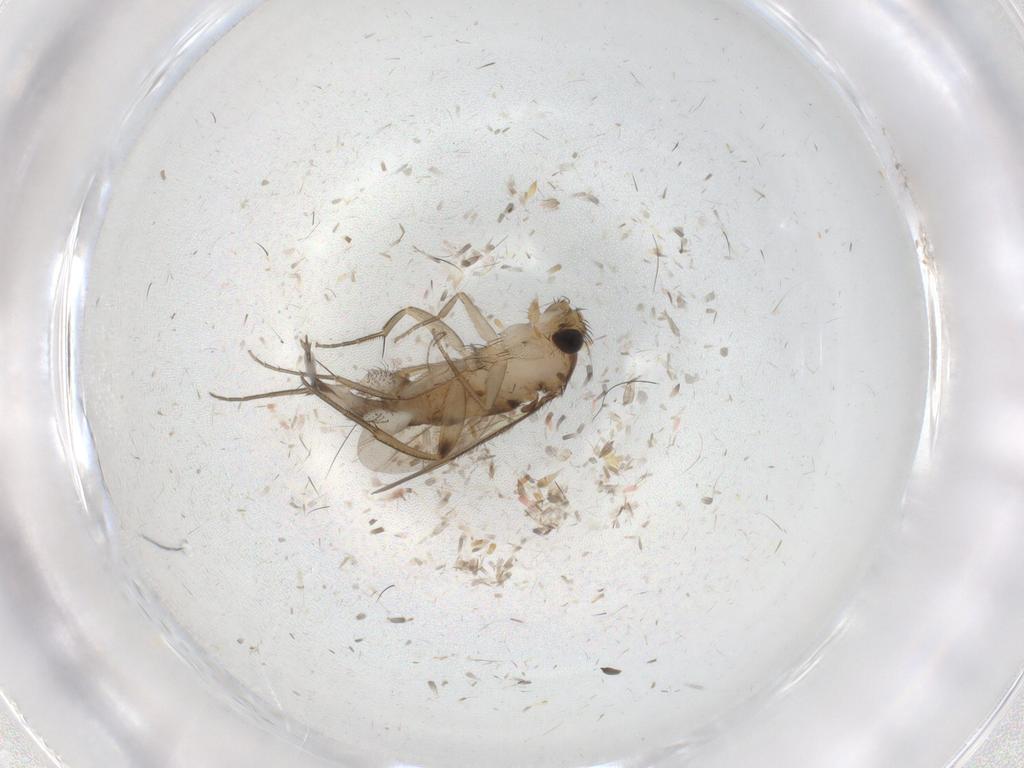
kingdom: Animalia
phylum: Arthropoda
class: Insecta
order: Diptera
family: Phoridae
